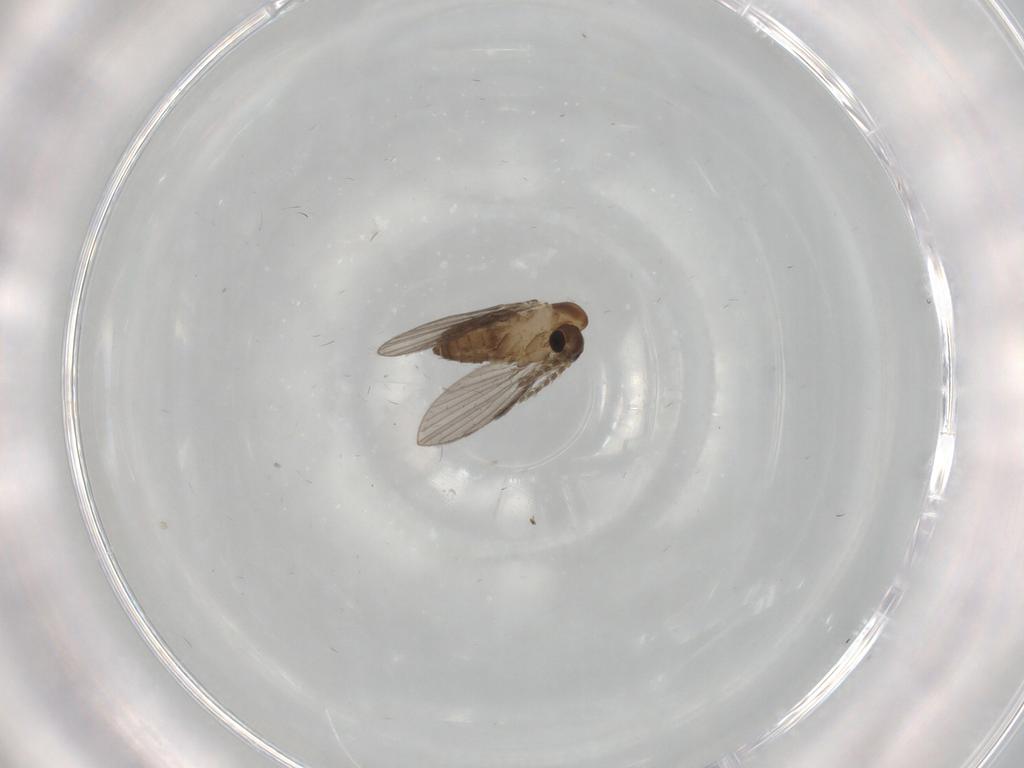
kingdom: Animalia
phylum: Arthropoda
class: Insecta
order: Diptera
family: Cecidomyiidae
